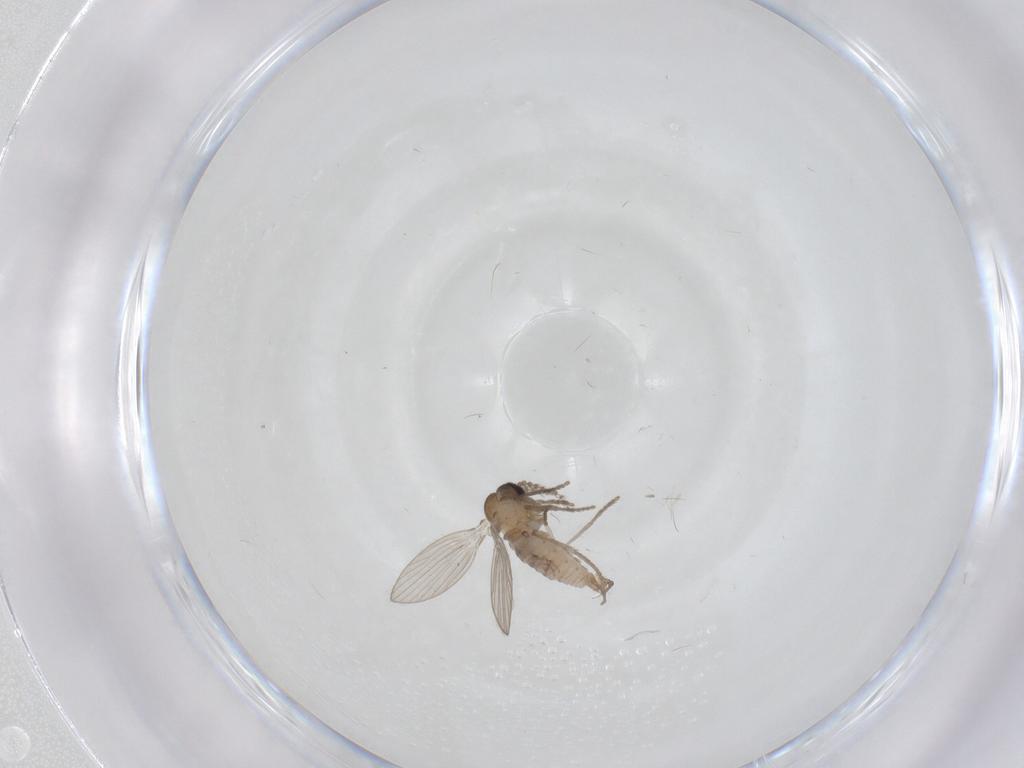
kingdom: Animalia
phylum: Arthropoda
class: Insecta
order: Diptera
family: Psychodidae
